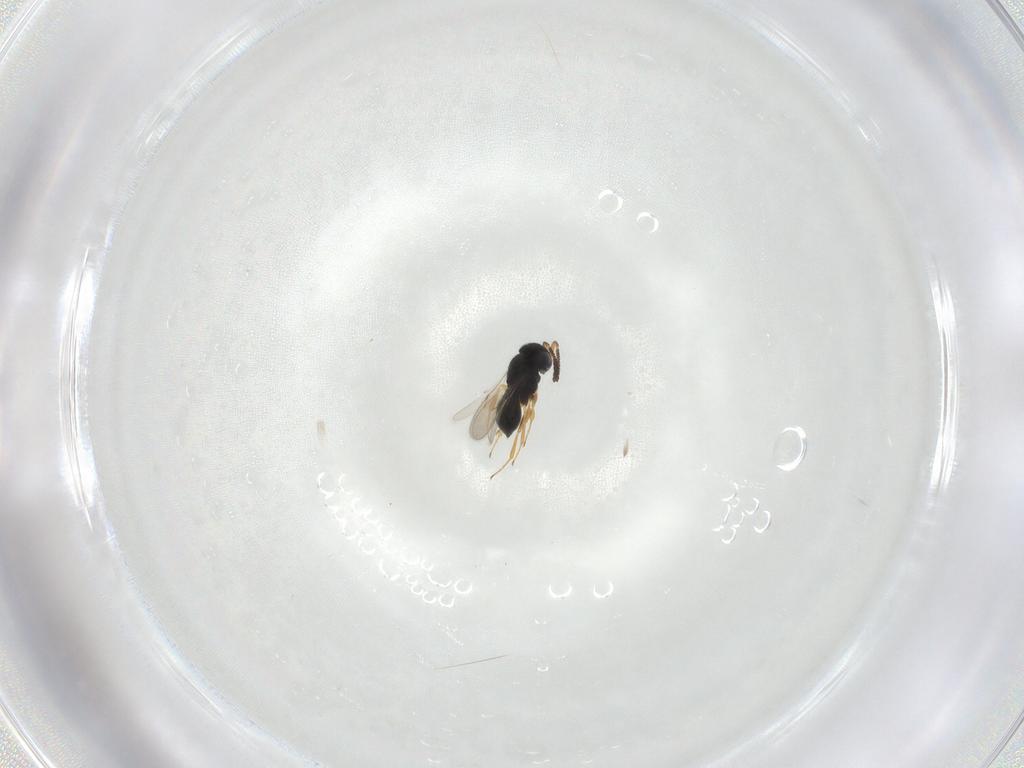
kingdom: Animalia
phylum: Arthropoda
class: Insecta
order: Hymenoptera
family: Scelionidae
